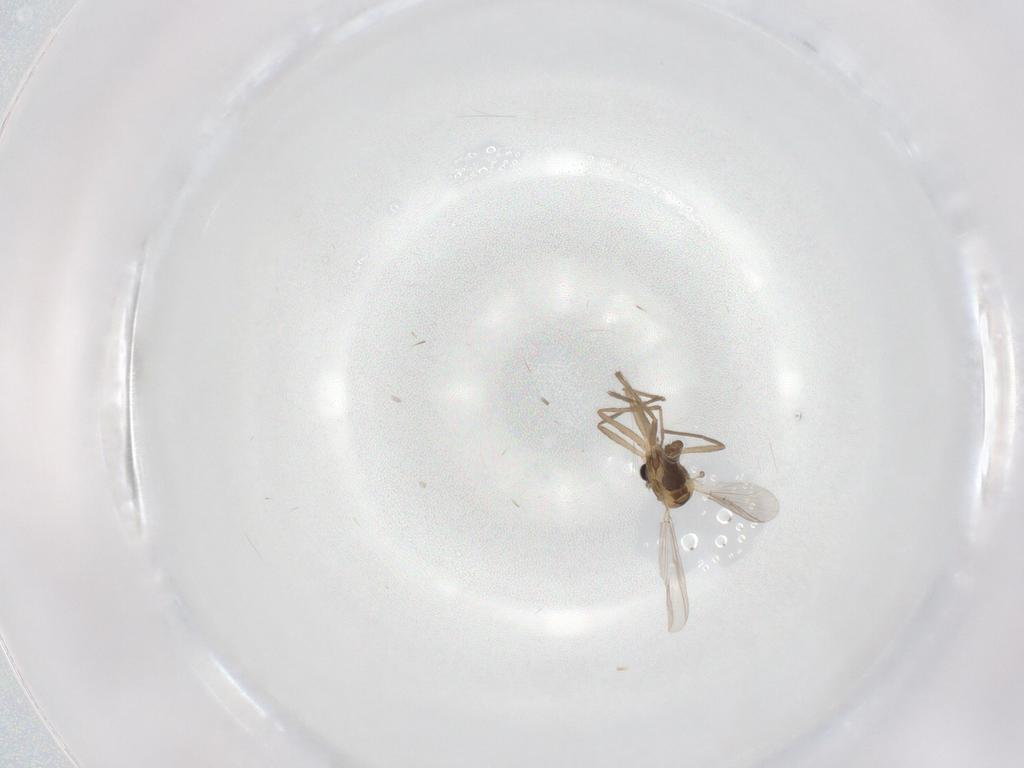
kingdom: Animalia
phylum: Arthropoda
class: Insecta
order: Diptera
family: Chironomidae
